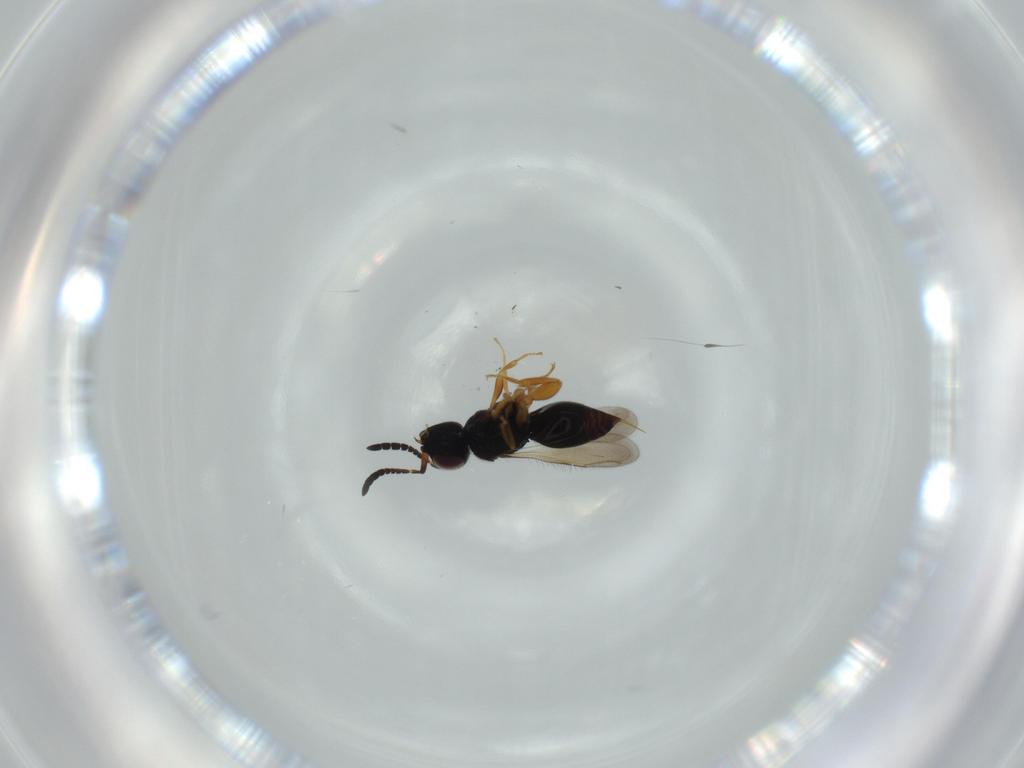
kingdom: Animalia
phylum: Arthropoda
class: Insecta
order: Hymenoptera
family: Ceraphronidae
